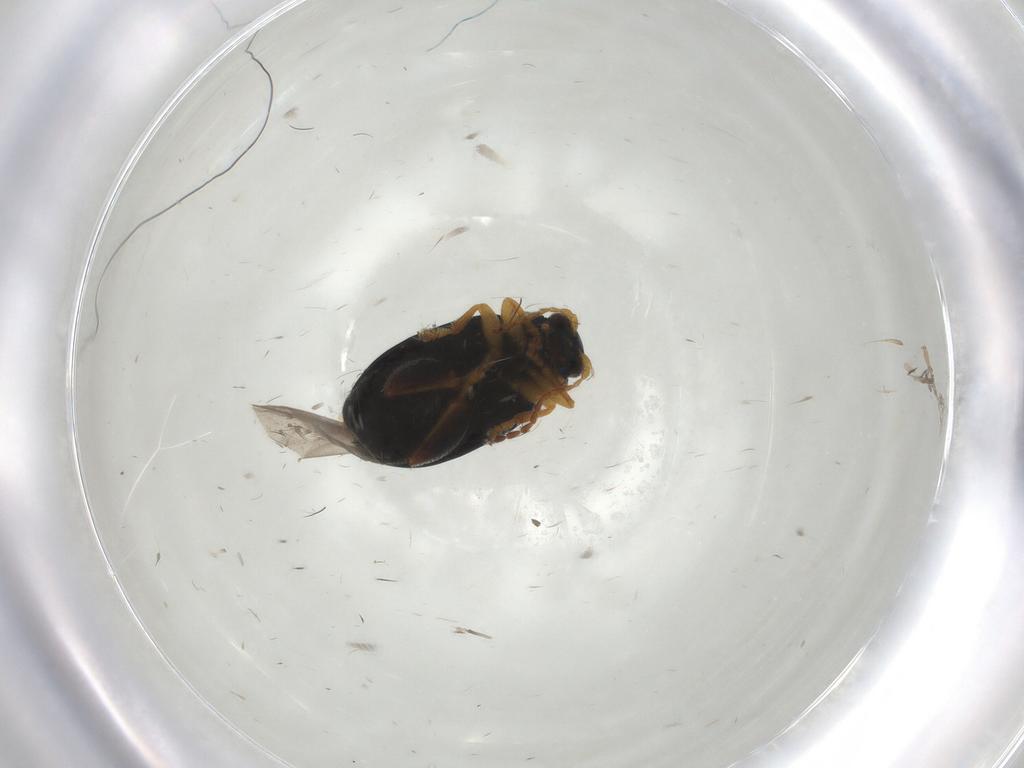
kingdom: Animalia
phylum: Arthropoda
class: Insecta
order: Coleoptera
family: Chrysomelidae
